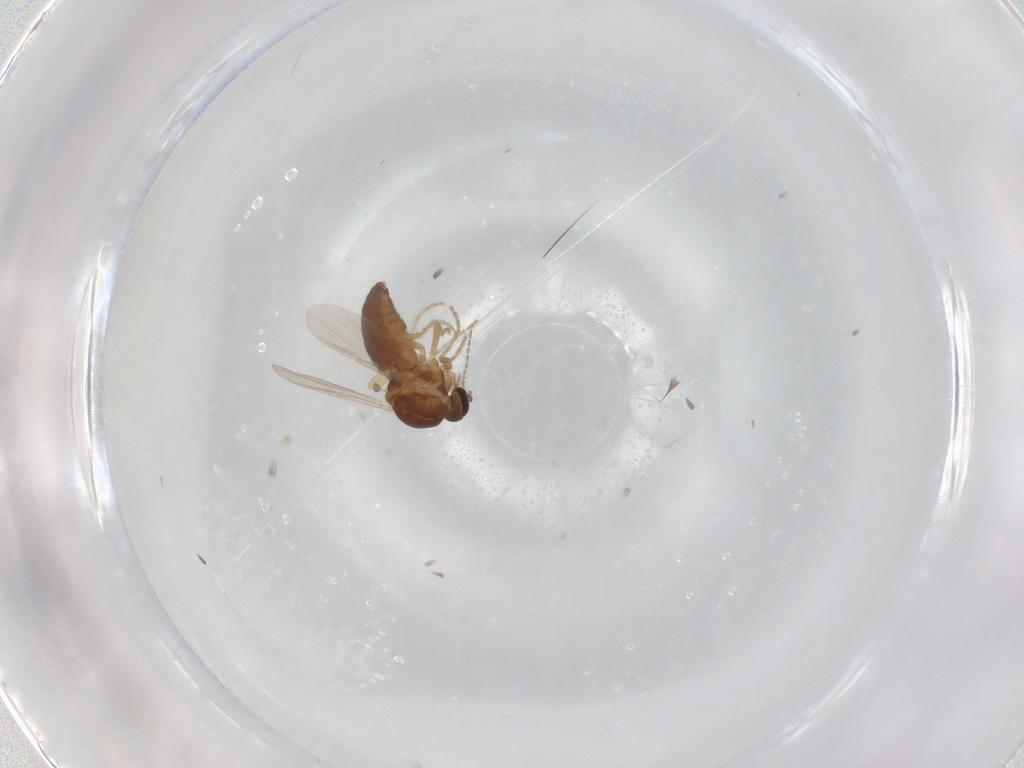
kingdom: Animalia
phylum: Arthropoda
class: Insecta
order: Diptera
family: Ceratopogonidae
